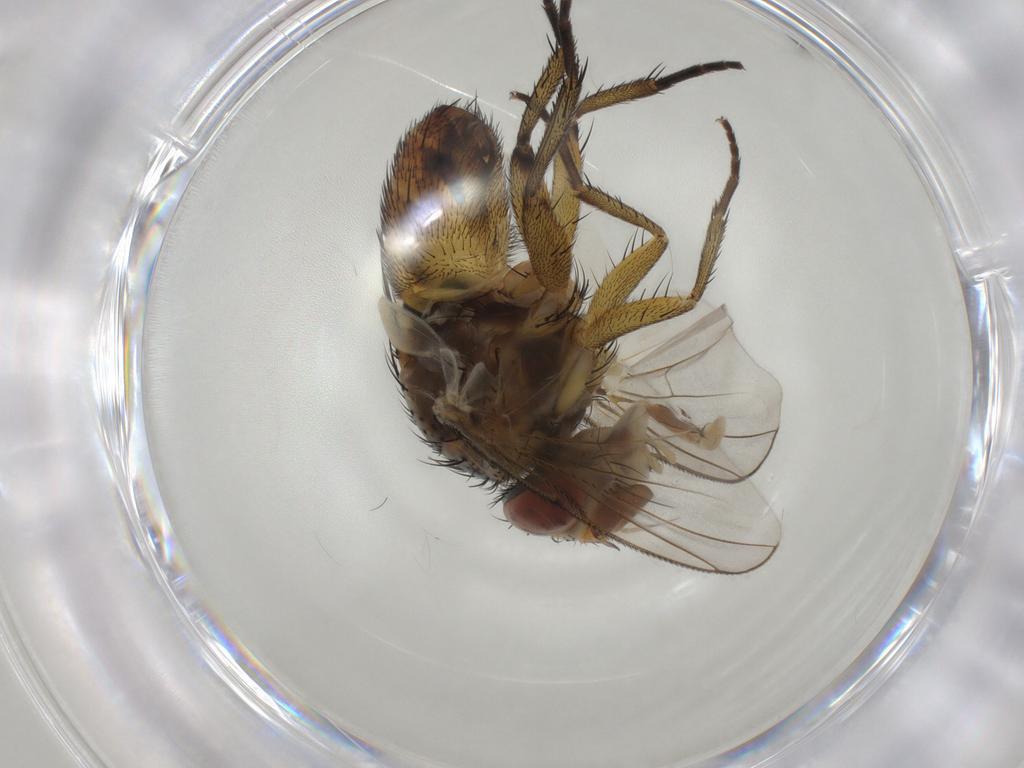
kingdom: Animalia
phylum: Arthropoda
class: Insecta
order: Diptera
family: Tachinidae
